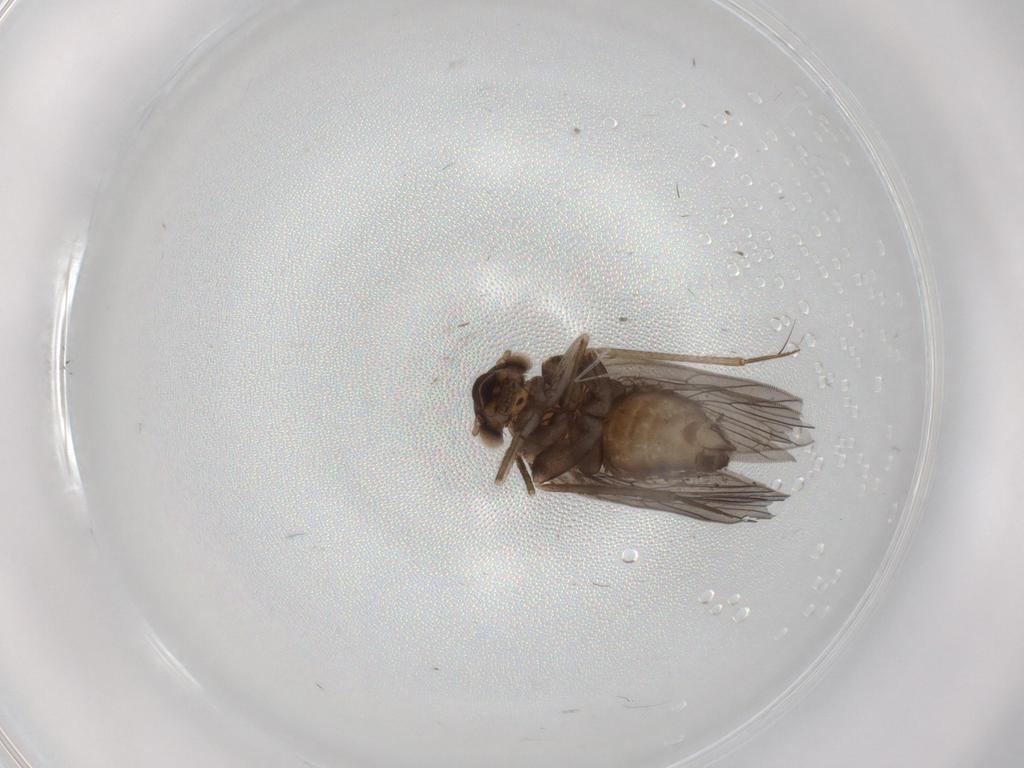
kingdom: Animalia
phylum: Arthropoda
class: Insecta
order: Psocodea
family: Lepidopsocidae
